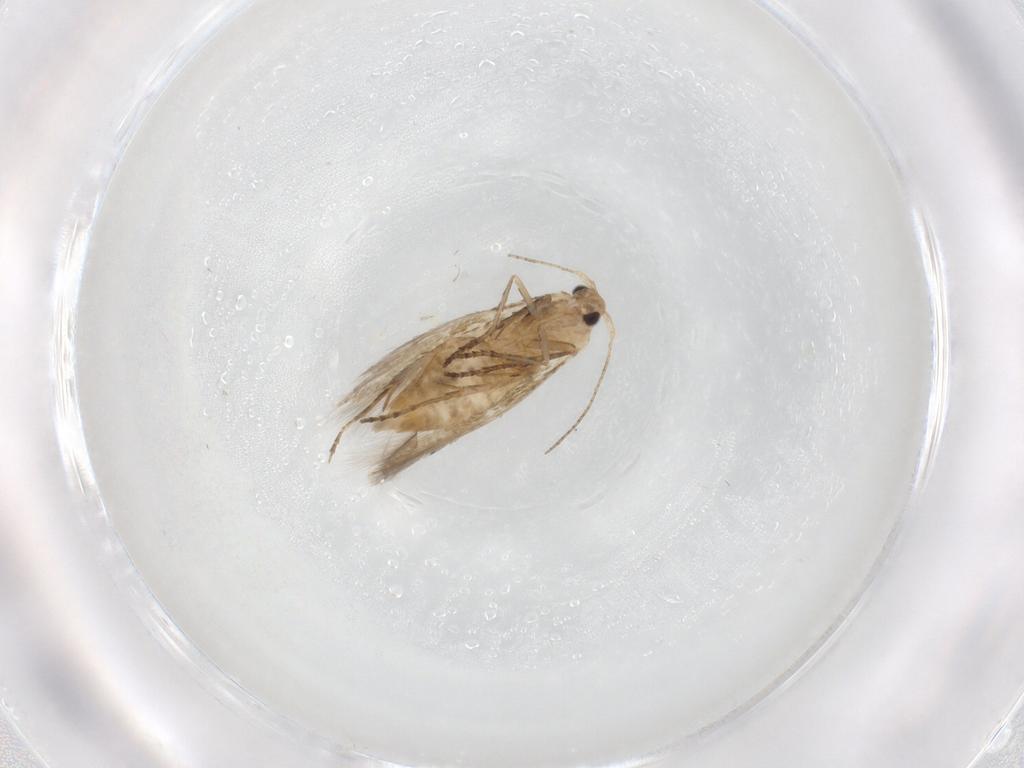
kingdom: Animalia
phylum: Arthropoda
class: Insecta
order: Lepidoptera
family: Bucculatricidae
